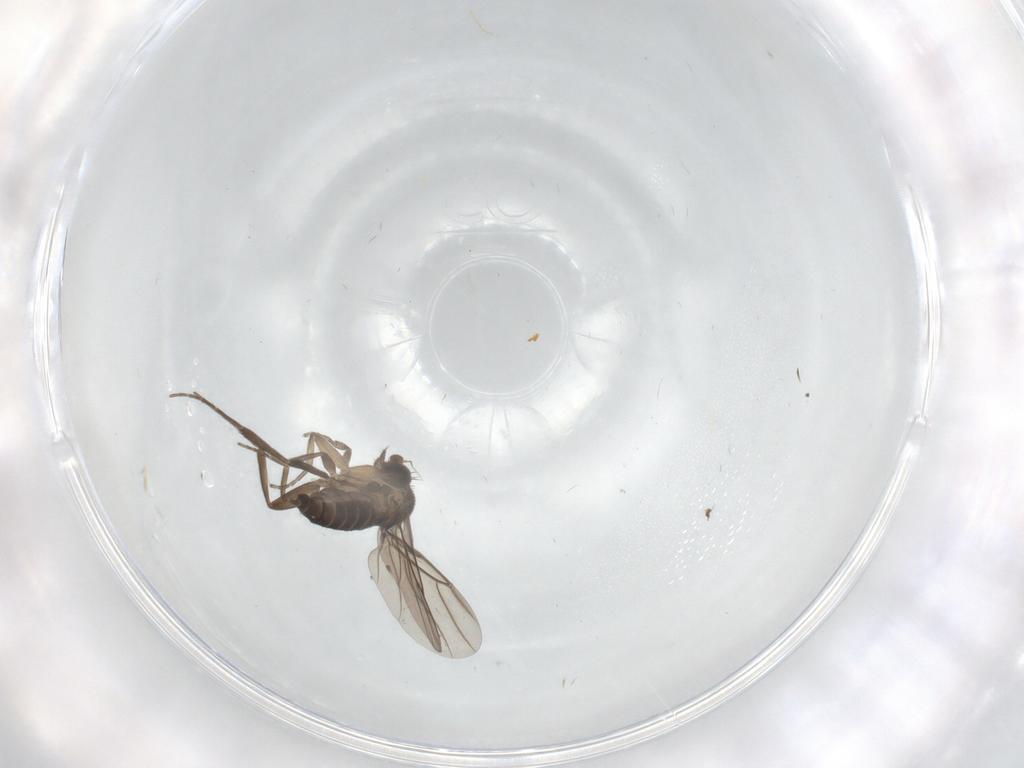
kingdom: Animalia
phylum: Arthropoda
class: Insecta
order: Diptera
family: Phoridae
